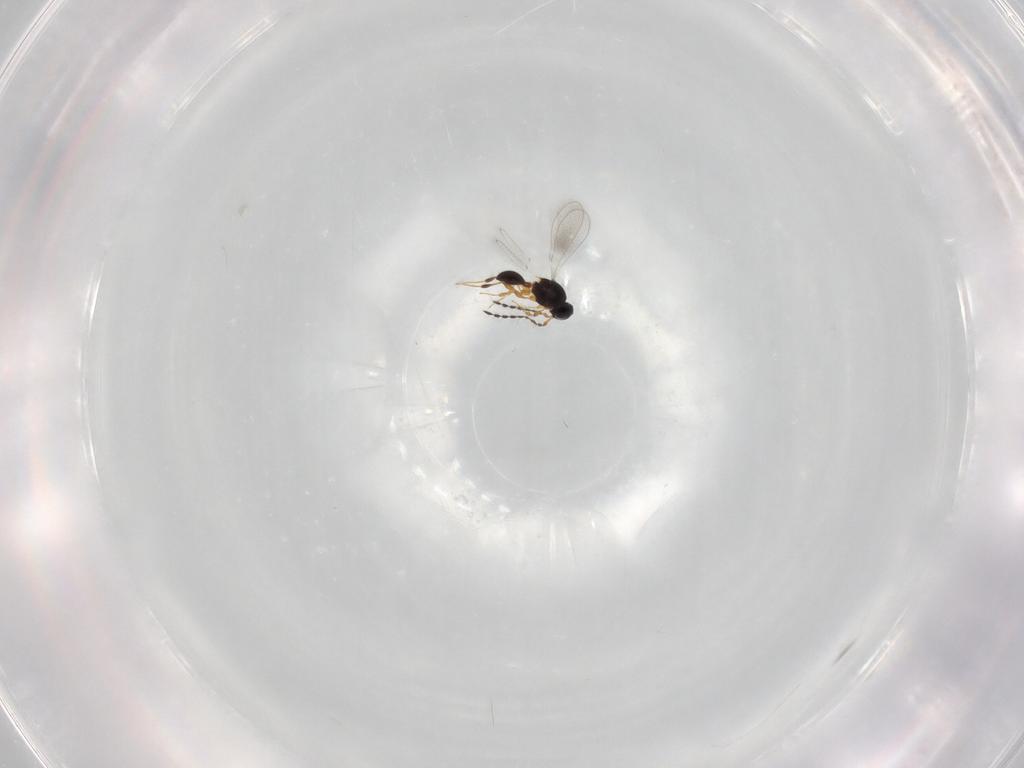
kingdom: Animalia
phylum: Arthropoda
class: Insecta
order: Hymenoptera
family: Platygastridae
